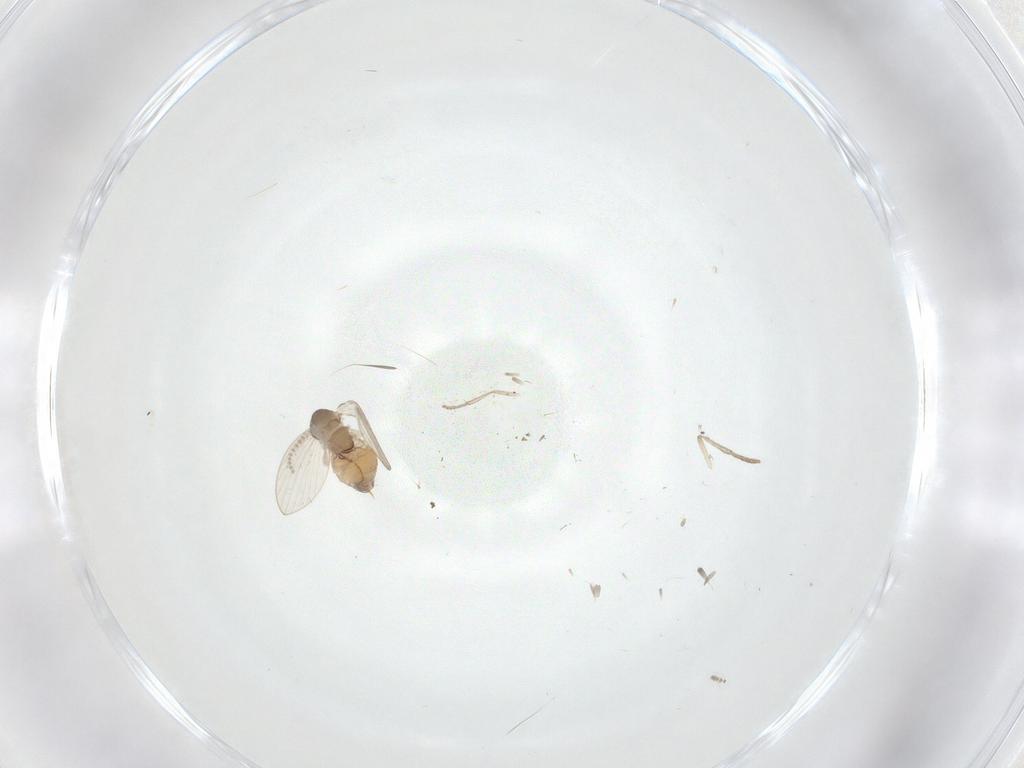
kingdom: Animalia
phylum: Arthropoda
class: Insecta
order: Diptera
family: Psychodidae
